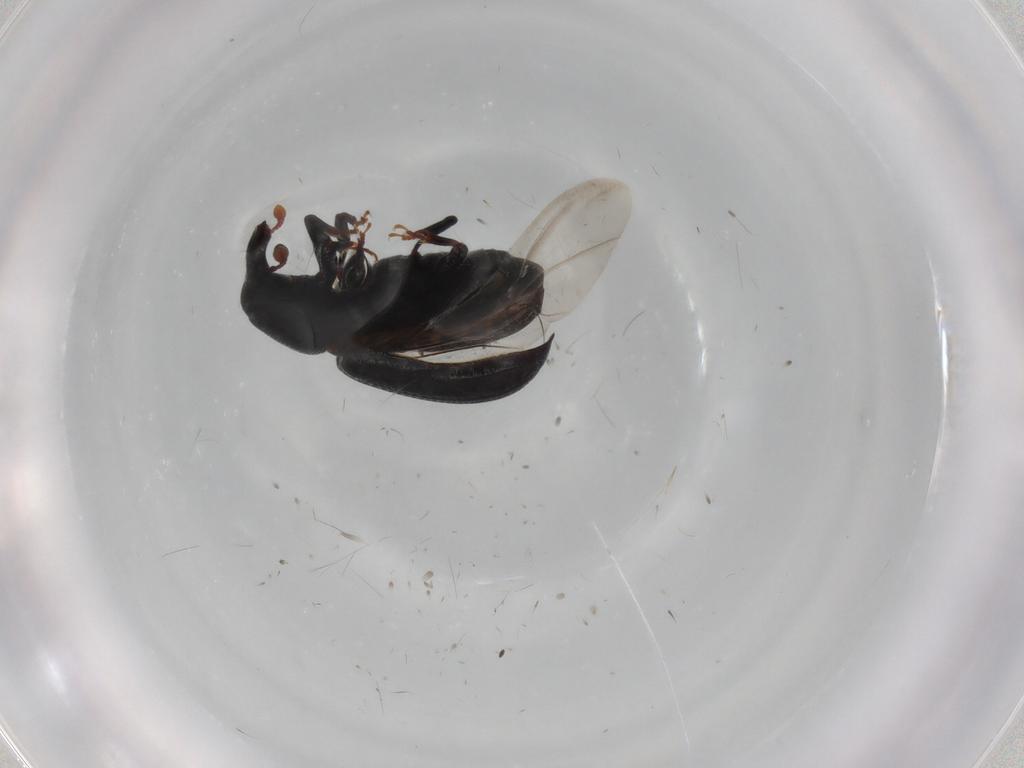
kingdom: Animalia
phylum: Arthropoda
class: Insecta
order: Coleoptera
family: Curculionidae
